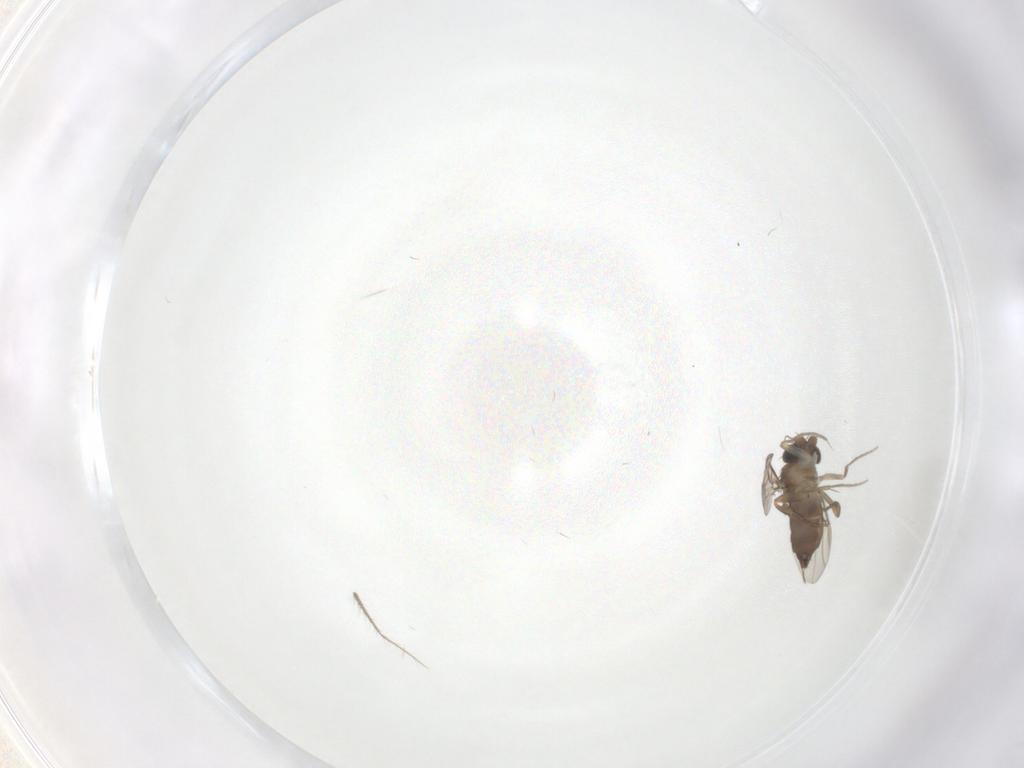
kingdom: Animalia
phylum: Arthropoda
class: Insecta
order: Diptera
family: Phoridae
